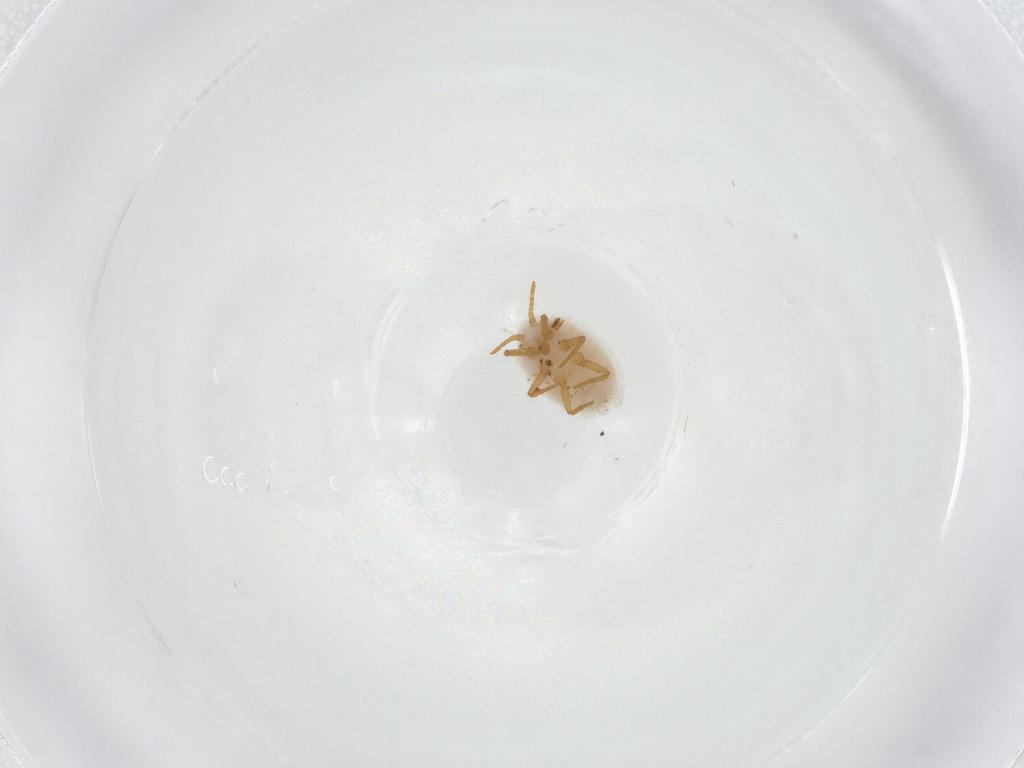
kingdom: Animalia
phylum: Arthropoda
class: Insecta
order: Hemiptera
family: Ortheziidae
